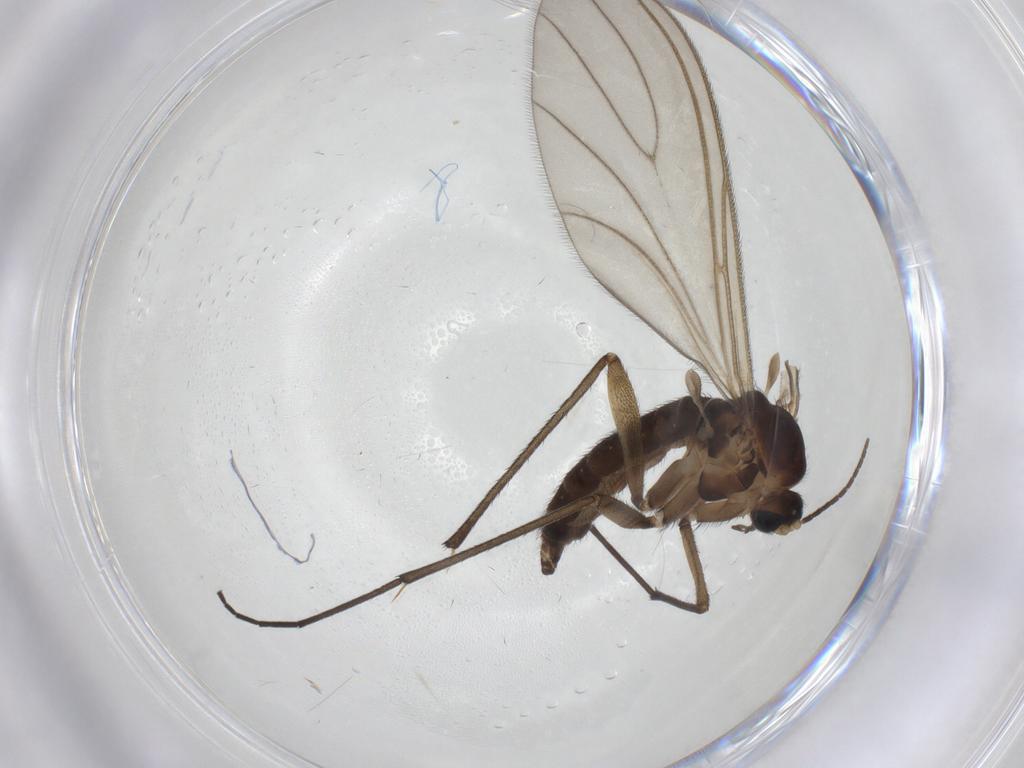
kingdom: Animalia
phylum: Arthropoda
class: Insecta
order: Diptera
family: Sciaridae
